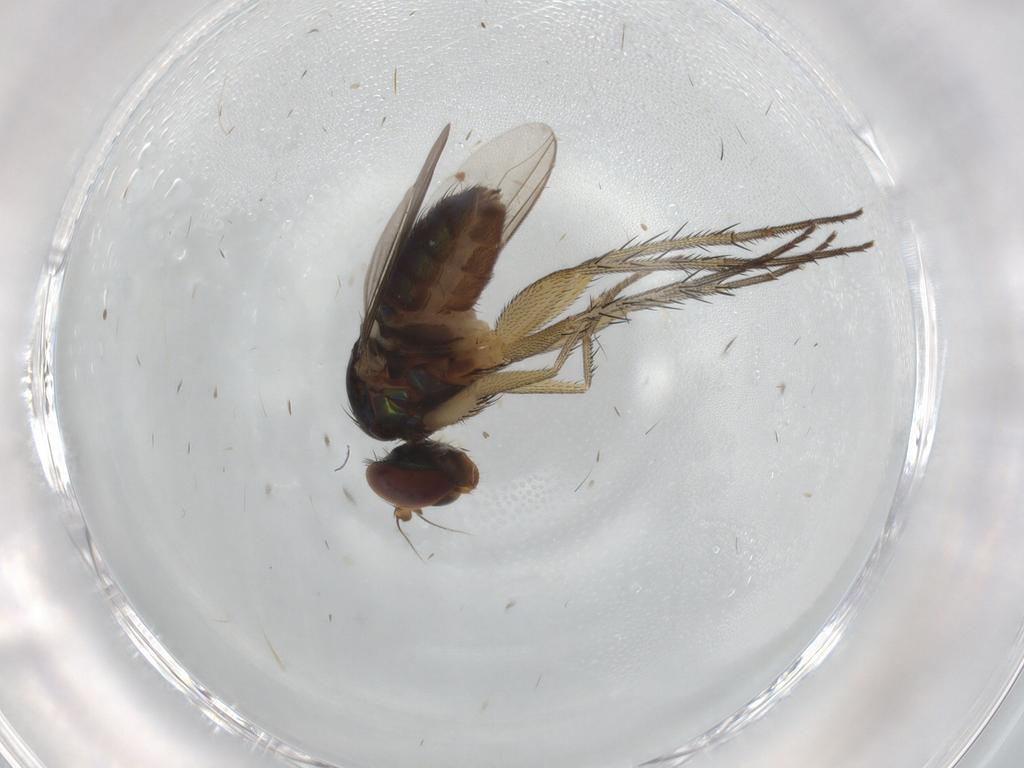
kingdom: Animalia
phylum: Arthropoda
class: Insecta
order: Diptera
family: Dolichopodidae
